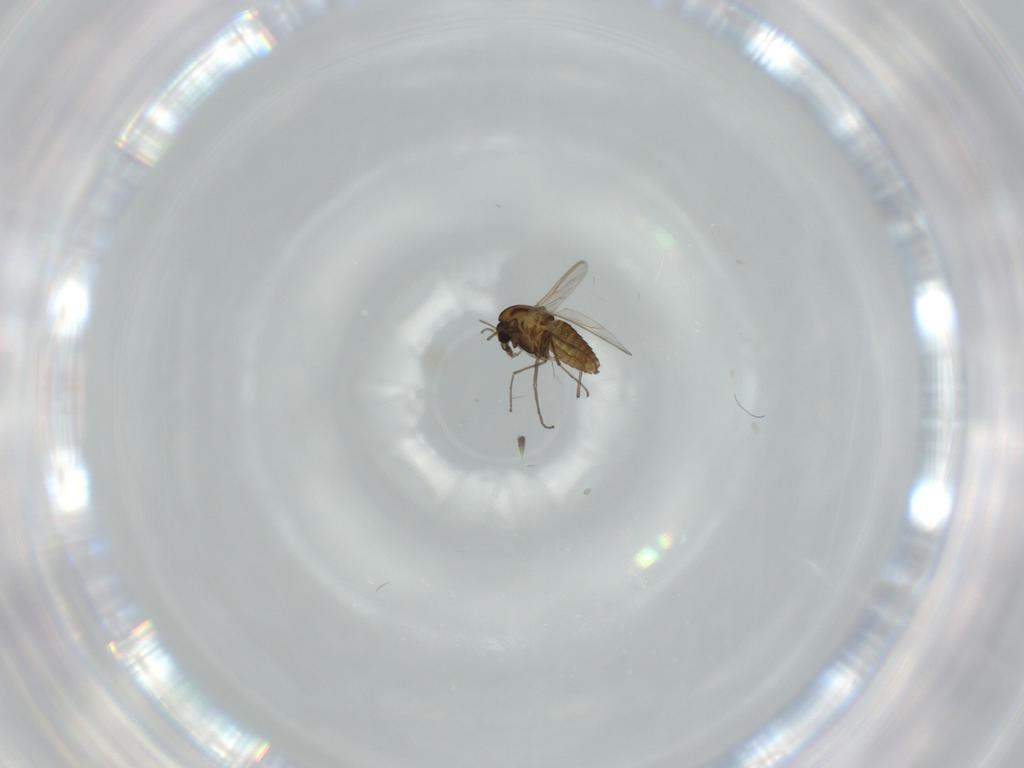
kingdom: Animalia
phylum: Arthropoda
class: Insecta
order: Diptera
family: Chironomidae
